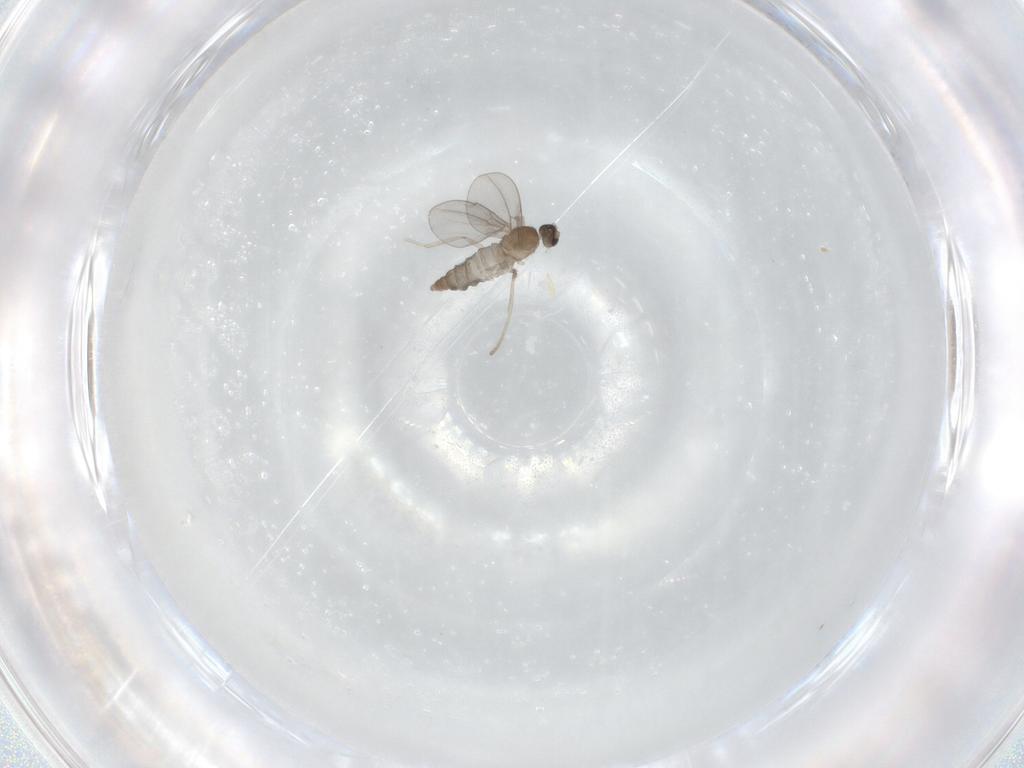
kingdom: Animalia
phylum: Arthropoda
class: Insecta
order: Diptera
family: Cecidomyiidae
